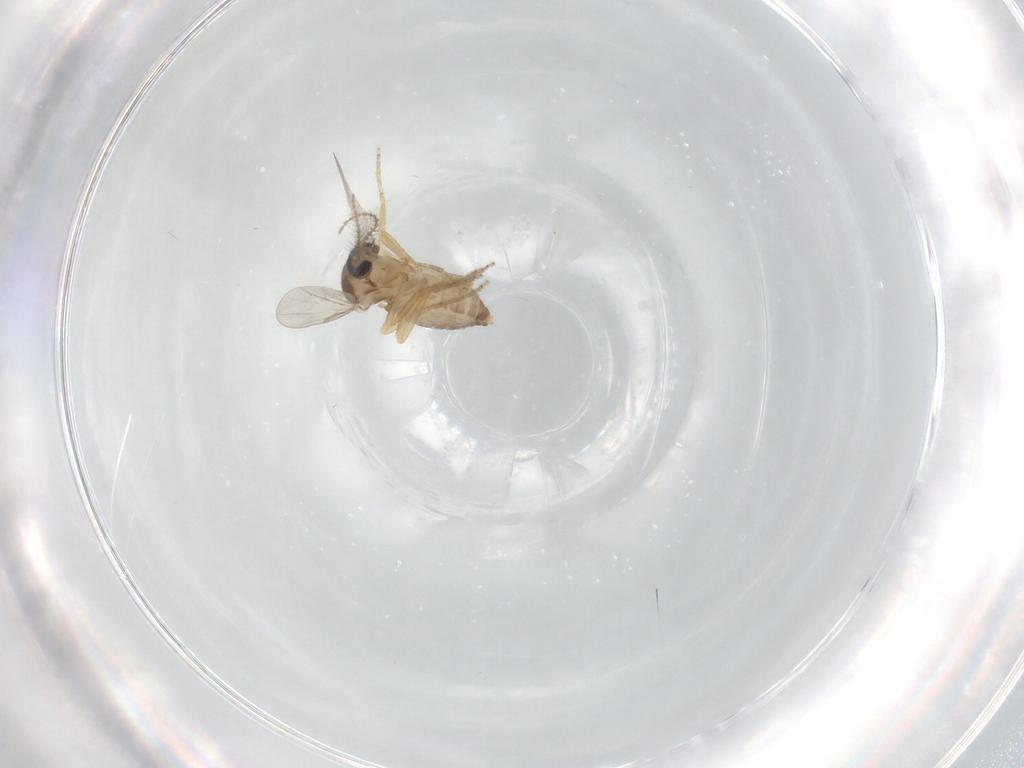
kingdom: Animalia
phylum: Arthropoda
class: Insecta
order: Diptera
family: Ceratopogonidae
